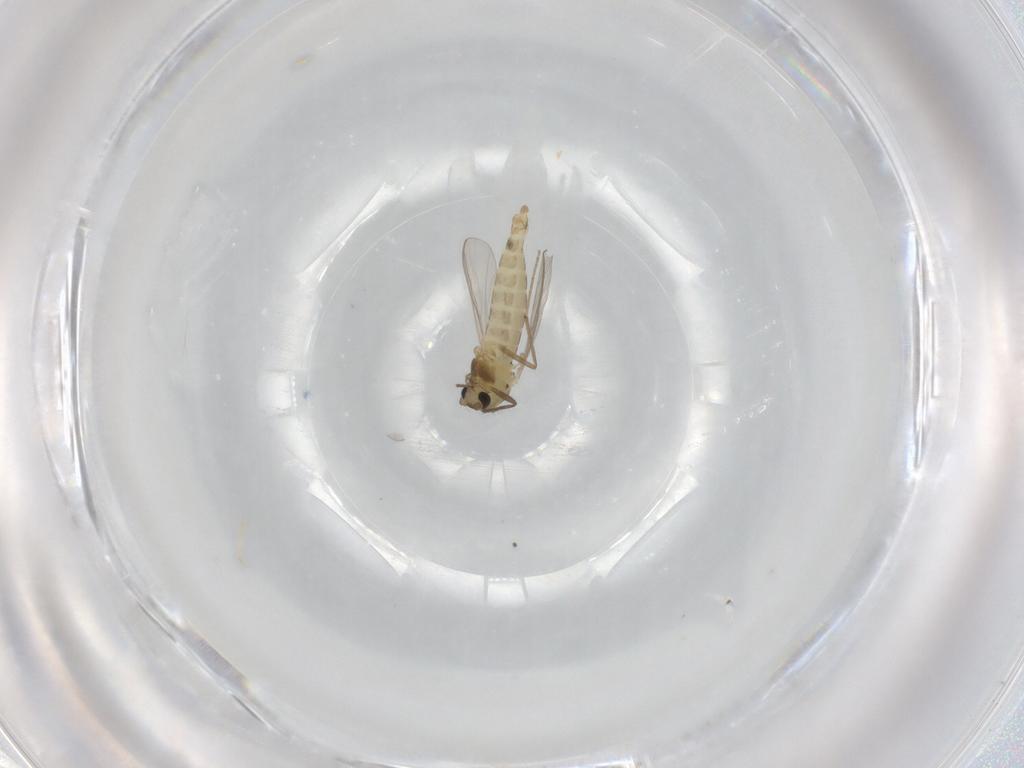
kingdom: Animalia
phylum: Arthropoda
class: Insecta
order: Diptera
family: Chironomidae
